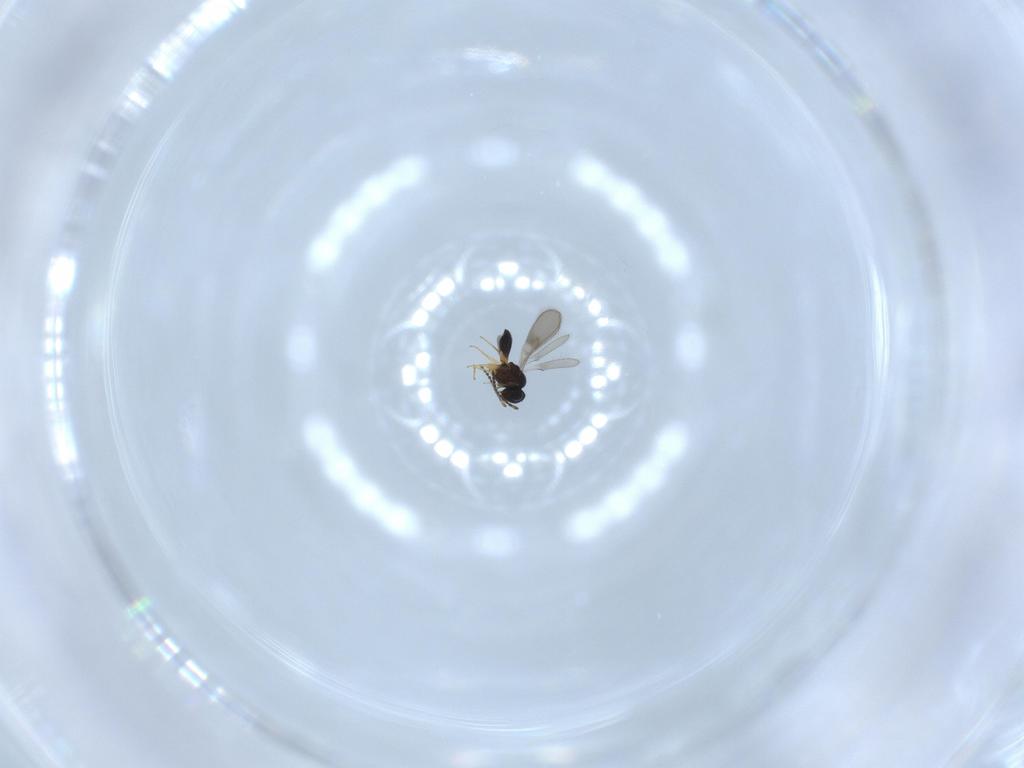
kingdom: Animalia
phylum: Arthropoda
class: Insecta
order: Hymenoptera
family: Scelionidae
